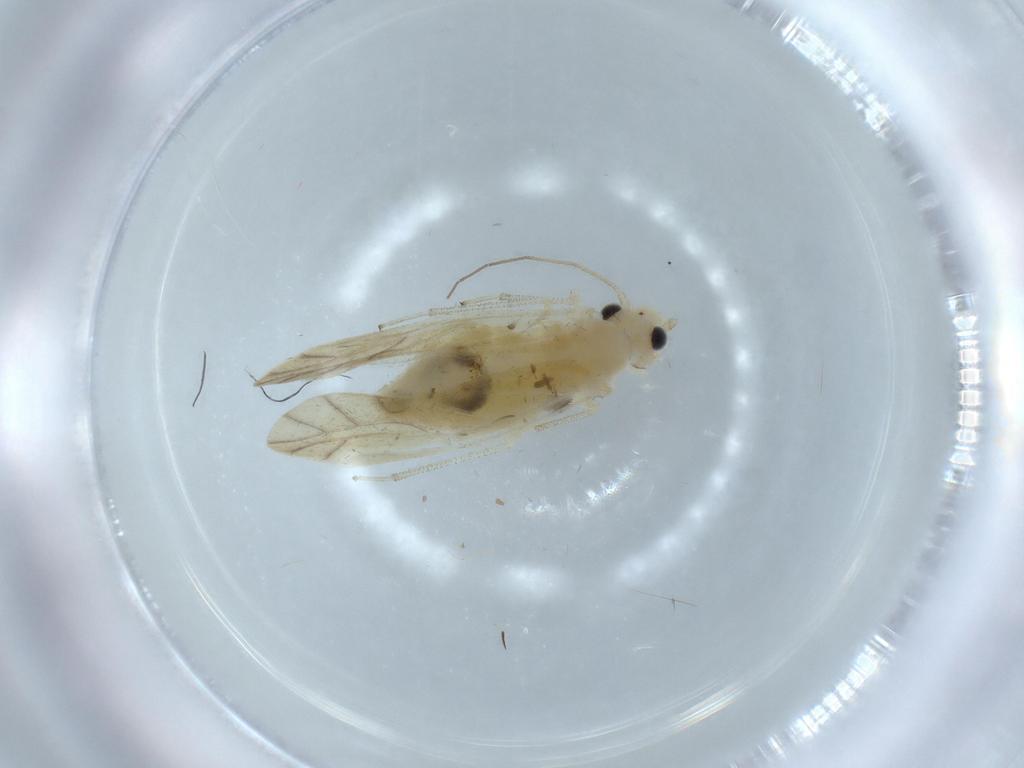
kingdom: Animalia
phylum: Arthropoda
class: Insecta
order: Psocodea
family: Caeciliusidae
